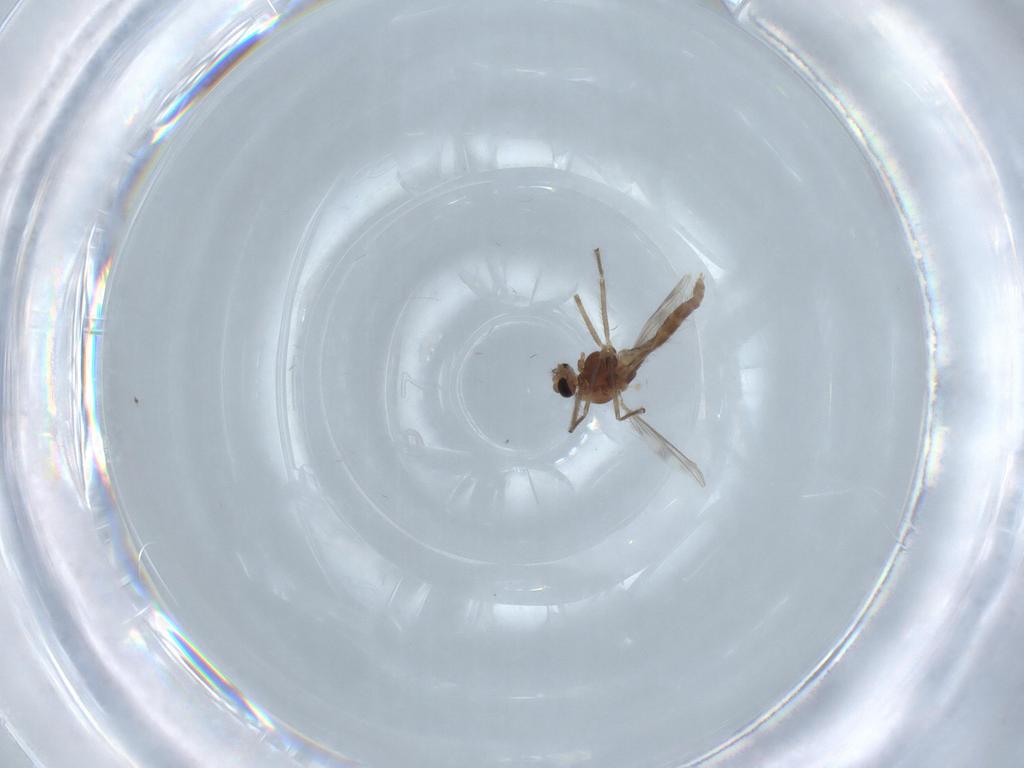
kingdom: Animalia
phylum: Arthropoda
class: Insecta
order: Diptera
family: Chironomidae
